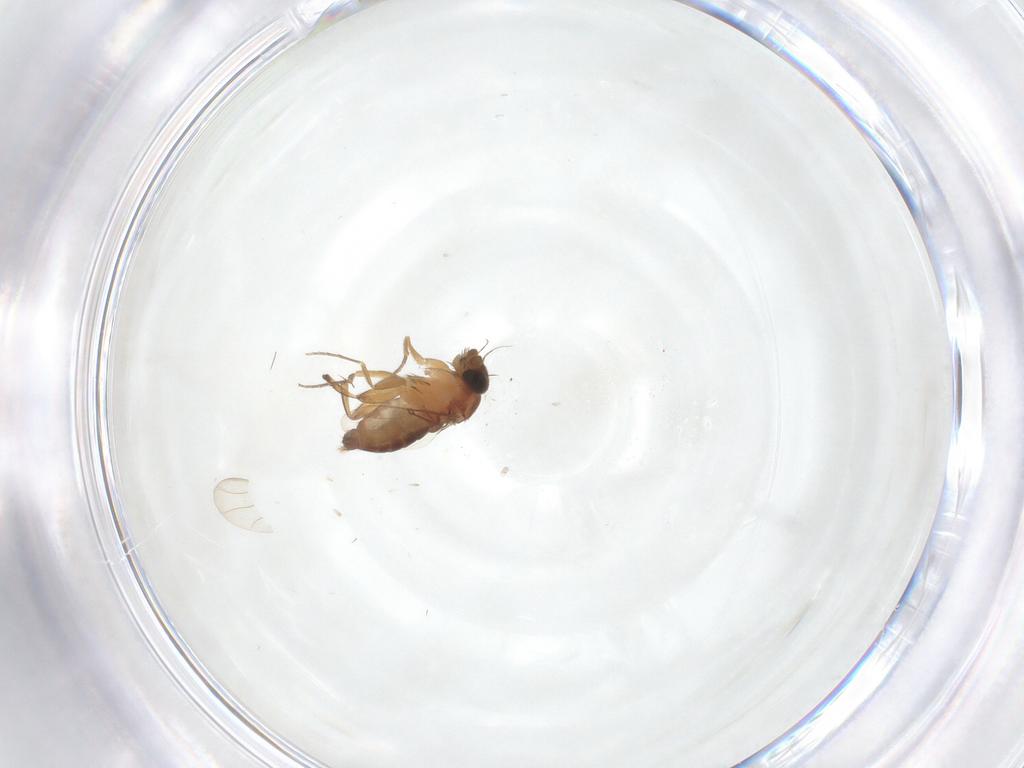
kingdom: Animalia
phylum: Arthropoda
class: Insecta
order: Diptera
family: Phoridae
